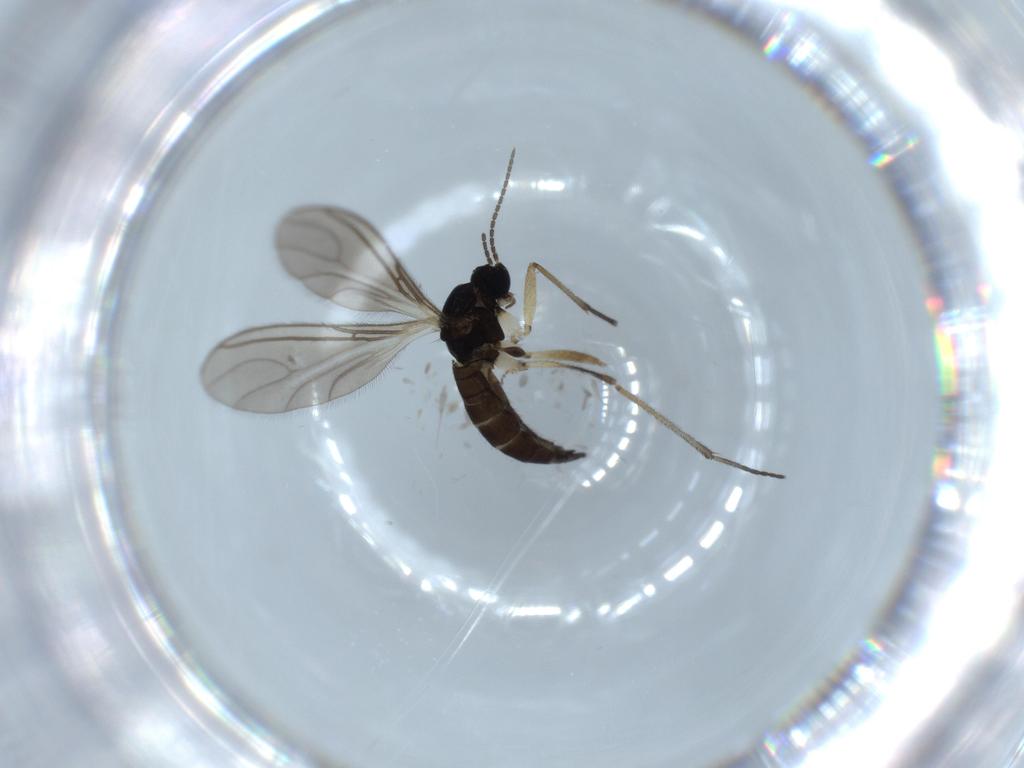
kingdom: Animalia
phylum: Arthropoda
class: Insecta
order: Diptera
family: Sciaridae
